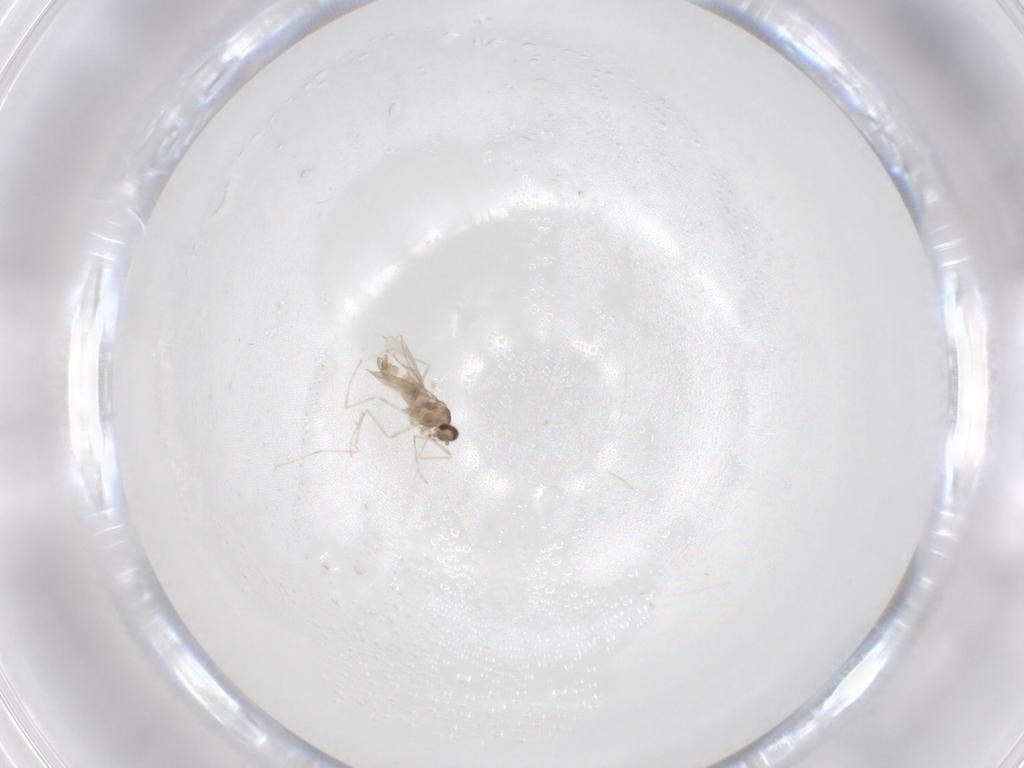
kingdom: Animalia
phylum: Arthropoda
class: Insecta
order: Diptera
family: Cecidomyiidae
